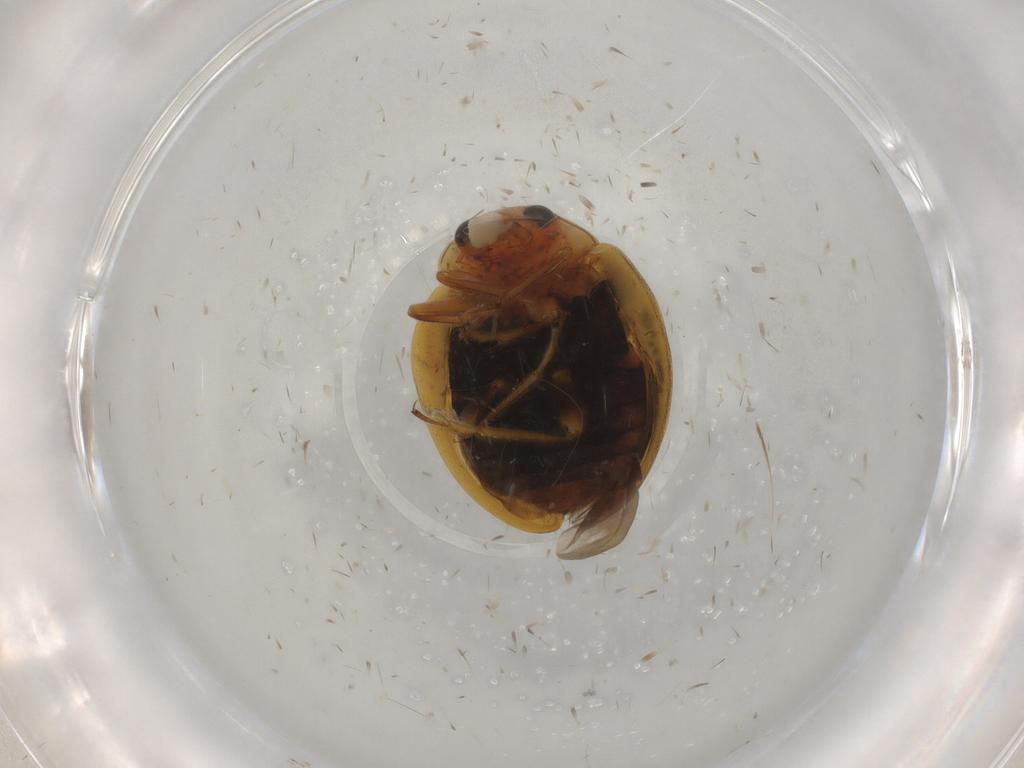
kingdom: Animalia
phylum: Arthropoda
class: Insecta
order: Coleoptera
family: Coccinellidae
